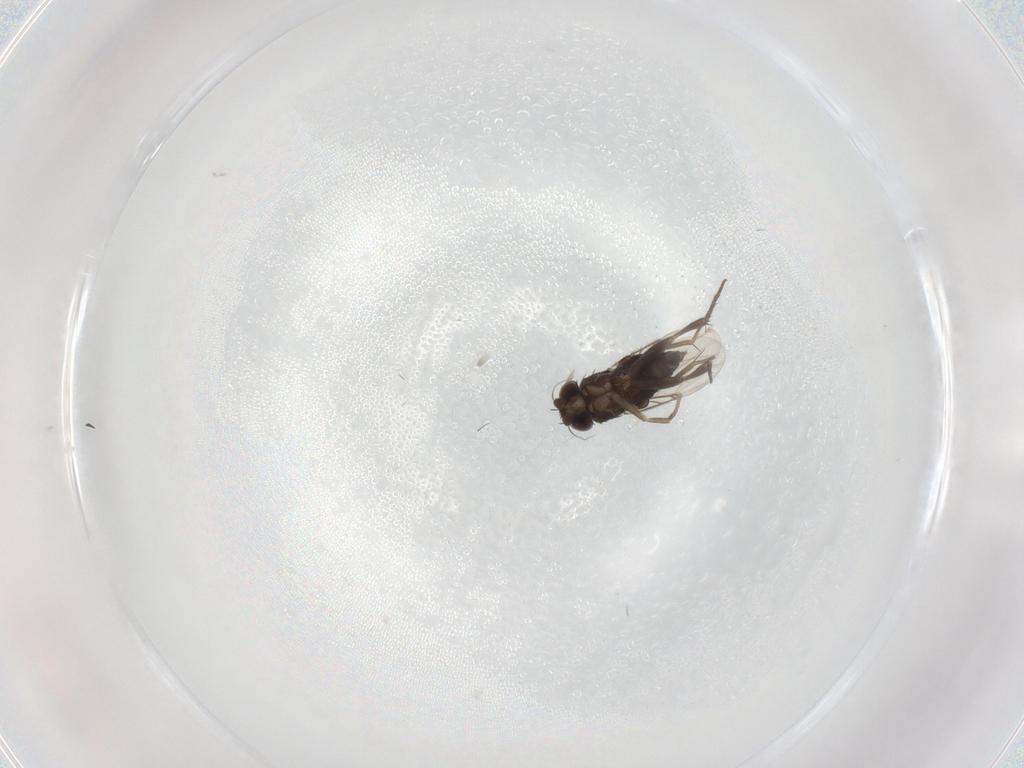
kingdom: Animalia
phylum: Arthropoda
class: Insecta
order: Diptera
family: Phoridae
